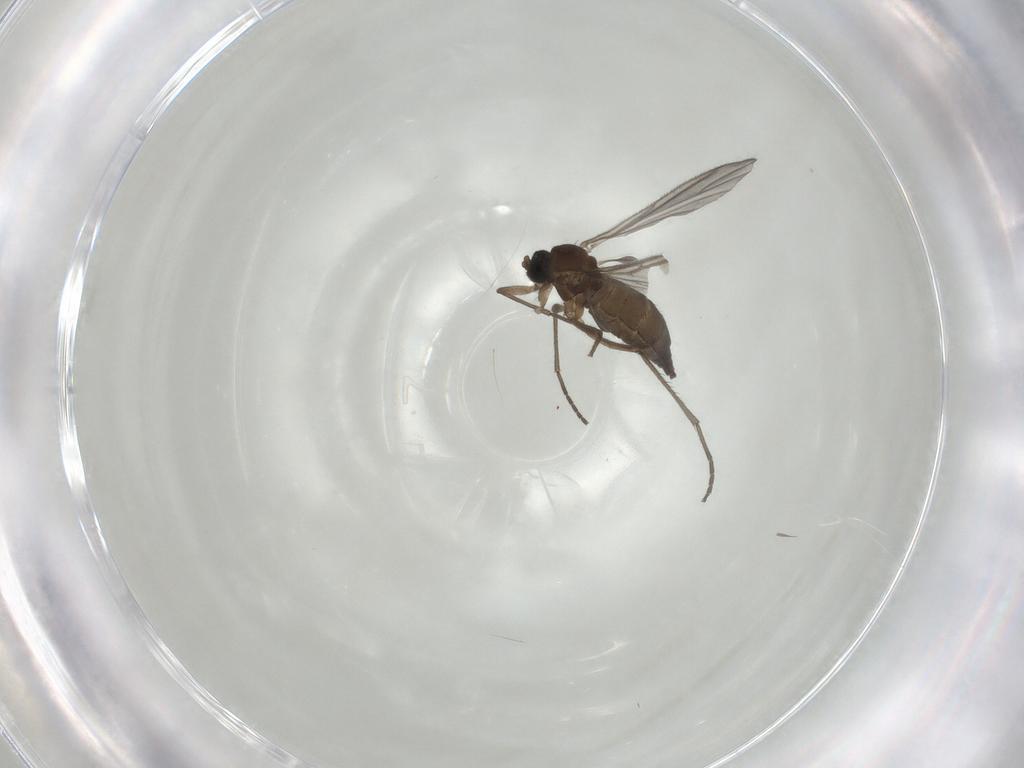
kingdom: Animalia
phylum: Arthropoda
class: Insecta
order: Diptera
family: Sciaridae
